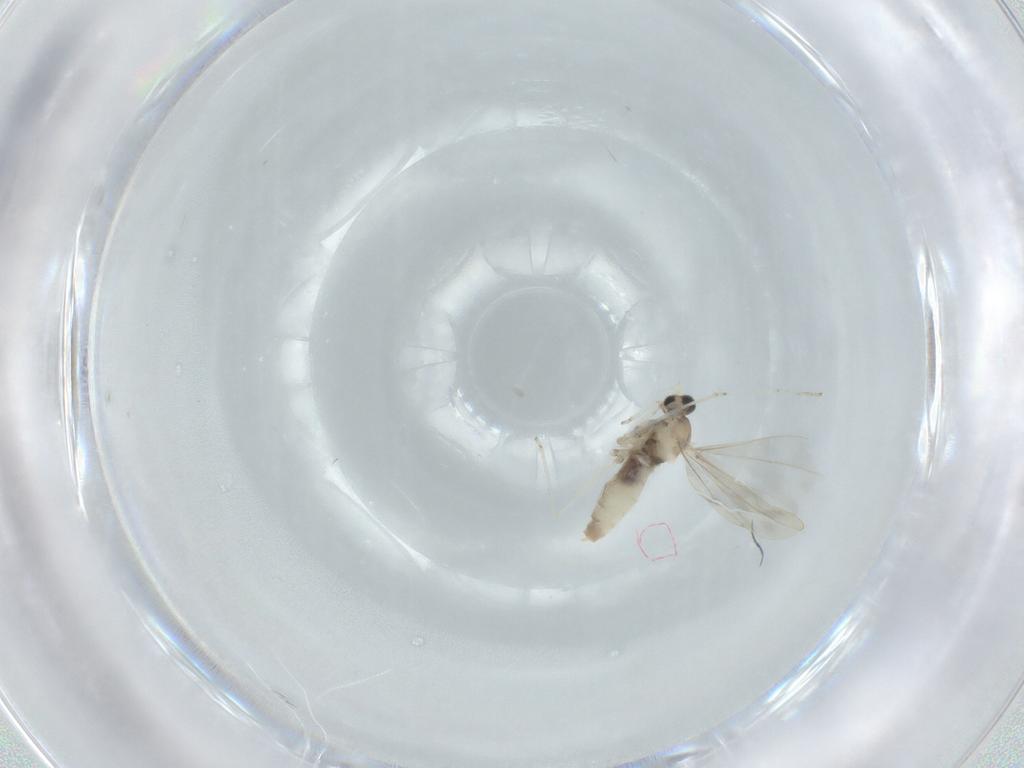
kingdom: Animalia
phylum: Arthropoda
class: Insecta
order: Diptera
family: Cecidomyiidae
